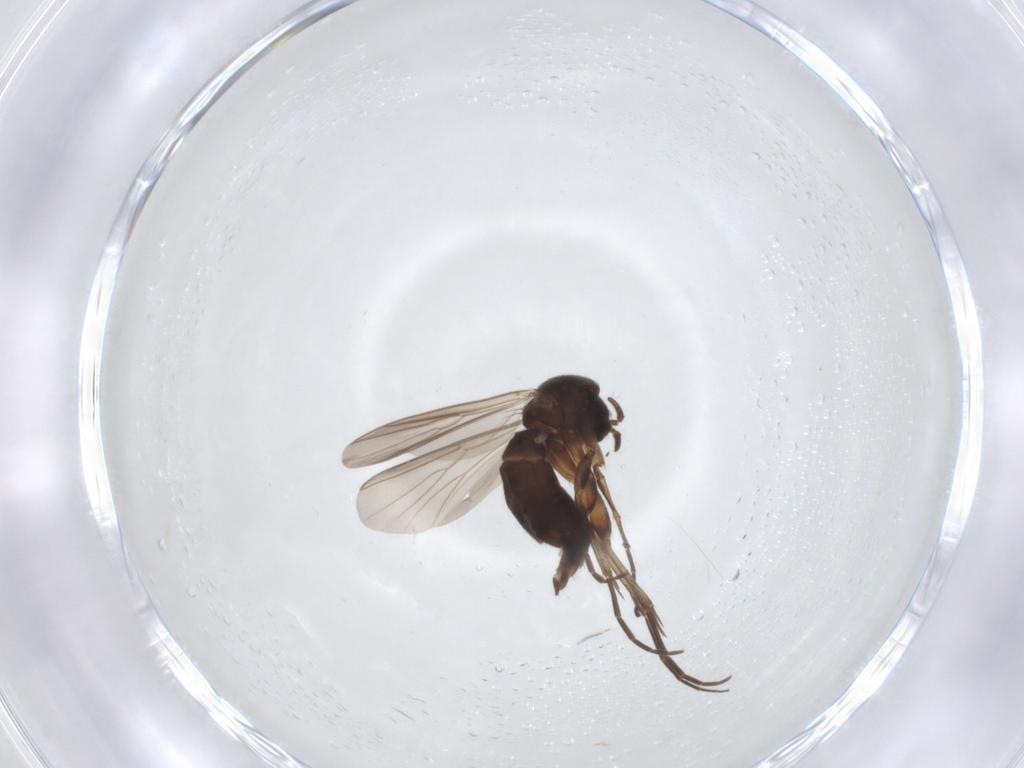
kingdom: Animalia
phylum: Arthropoda
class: Insecta
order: Diptera
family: Mycetophilidae
